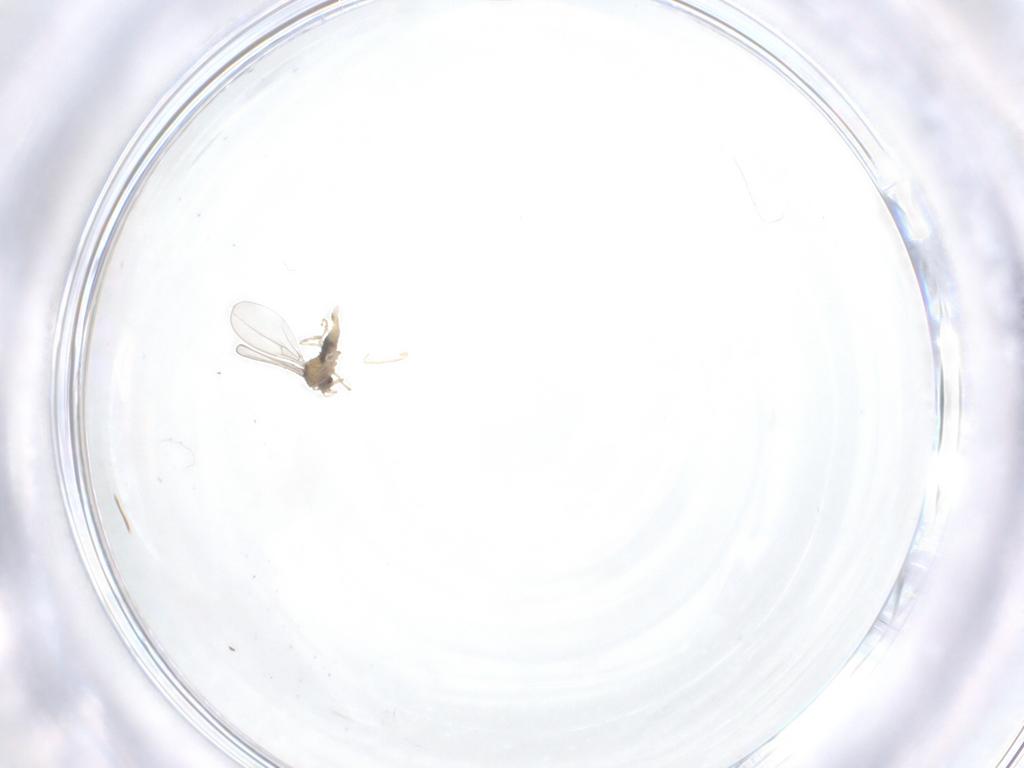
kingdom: Animalia
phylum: Arthropoda
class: Insecta
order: Diptera
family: Cecidomyiidae
